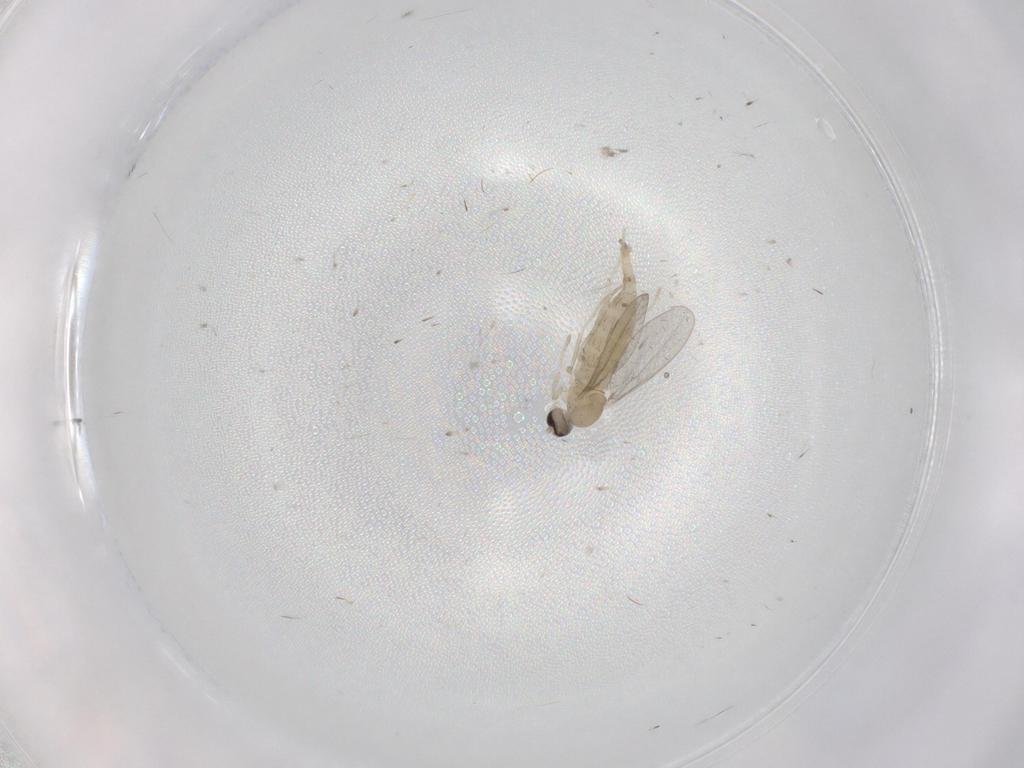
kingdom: Animalia
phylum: Arthropoda
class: Insecta
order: Diptera
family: Cecidomyiidae
